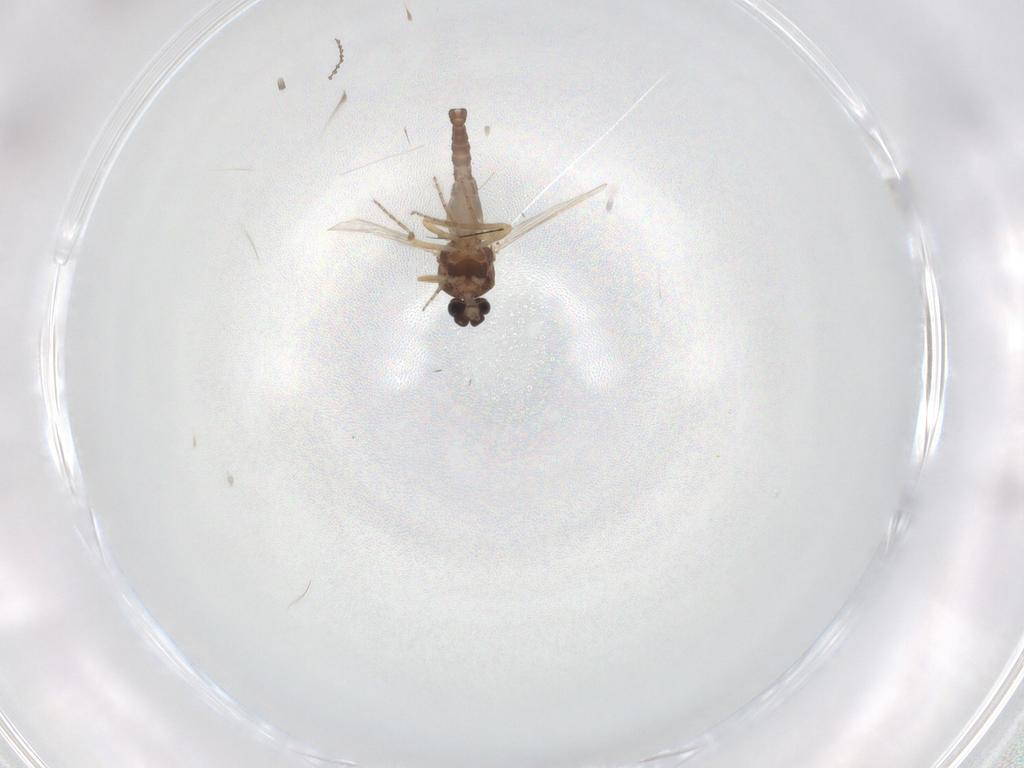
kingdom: Animalia
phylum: Arthropoda
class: Insecta
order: Diptera
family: Ceratopogonidae
